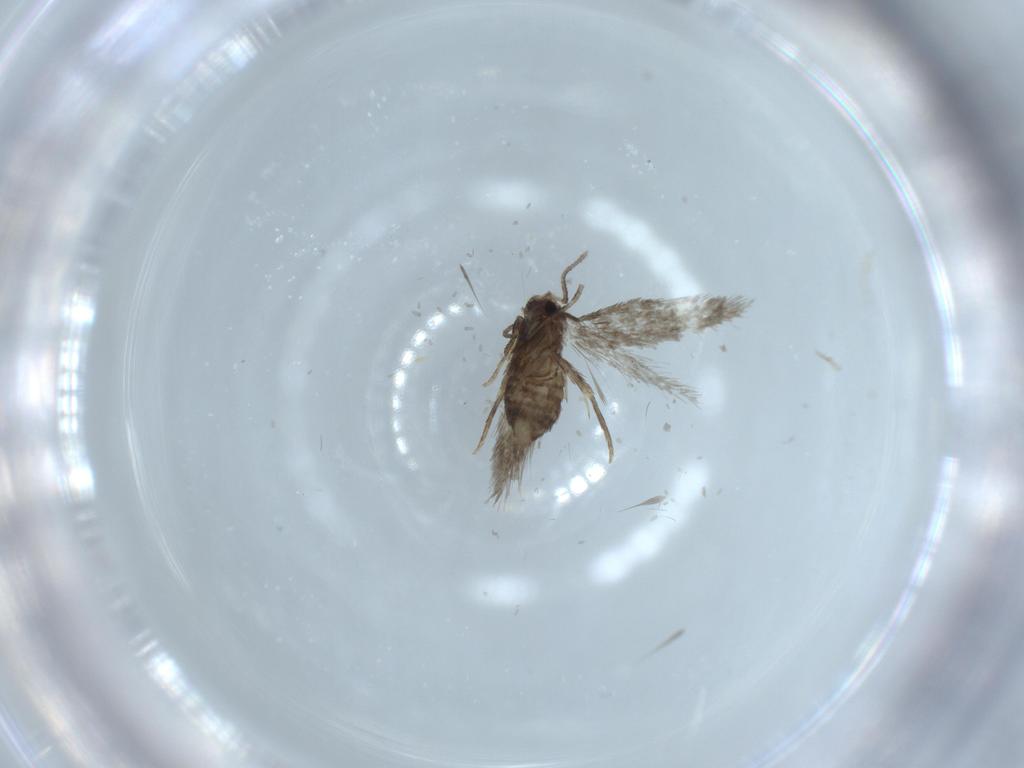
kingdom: Animalia
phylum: Arthropoda
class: Insecta
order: Lepidoptera
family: Nepticulidae
